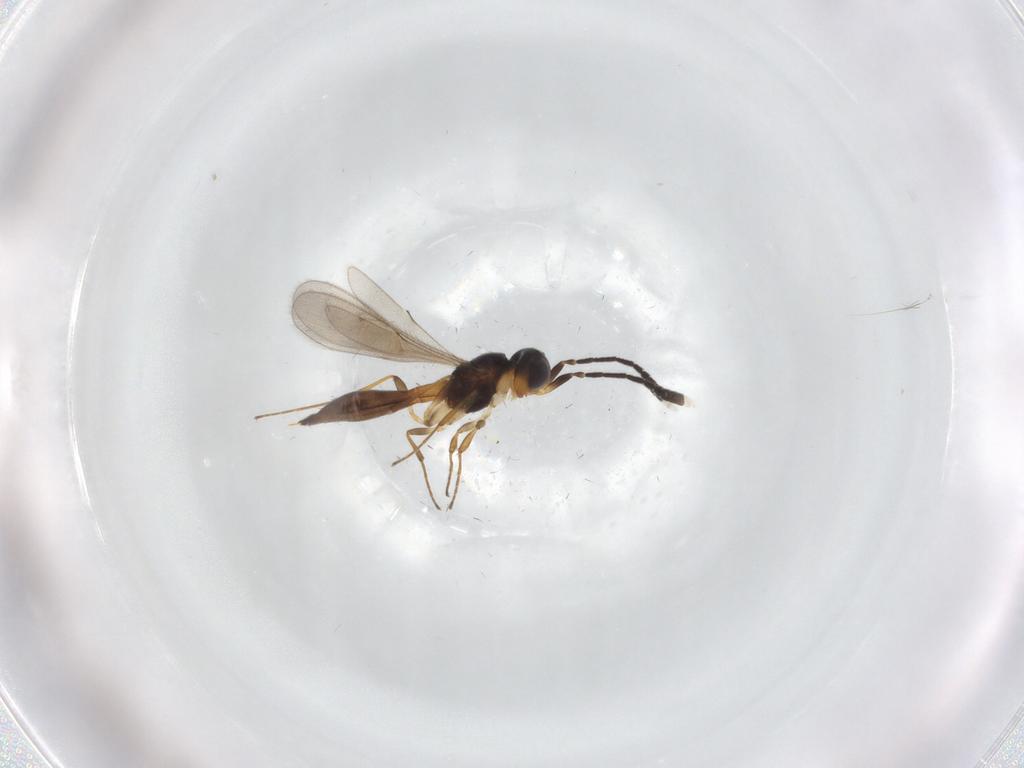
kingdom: Animalia
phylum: Arthropoda
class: Insecta
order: Hymenoptera
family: Scelionidae
